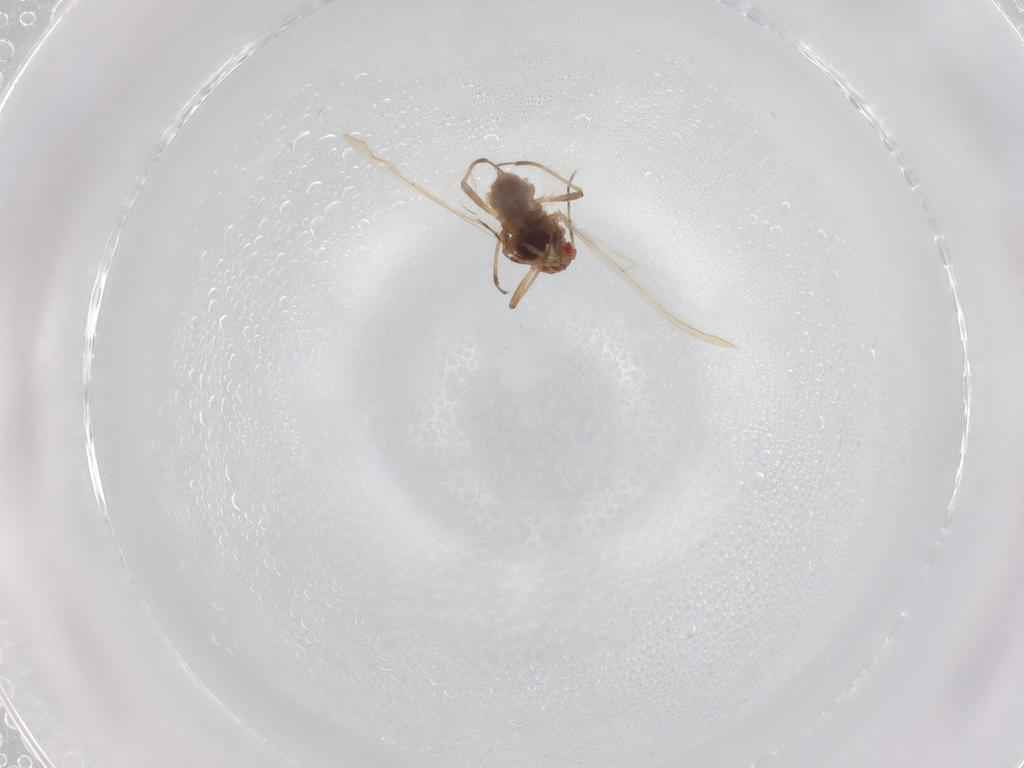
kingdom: Animalia
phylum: Arthropoda
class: Insecta
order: Hemiptera
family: Aphididae
